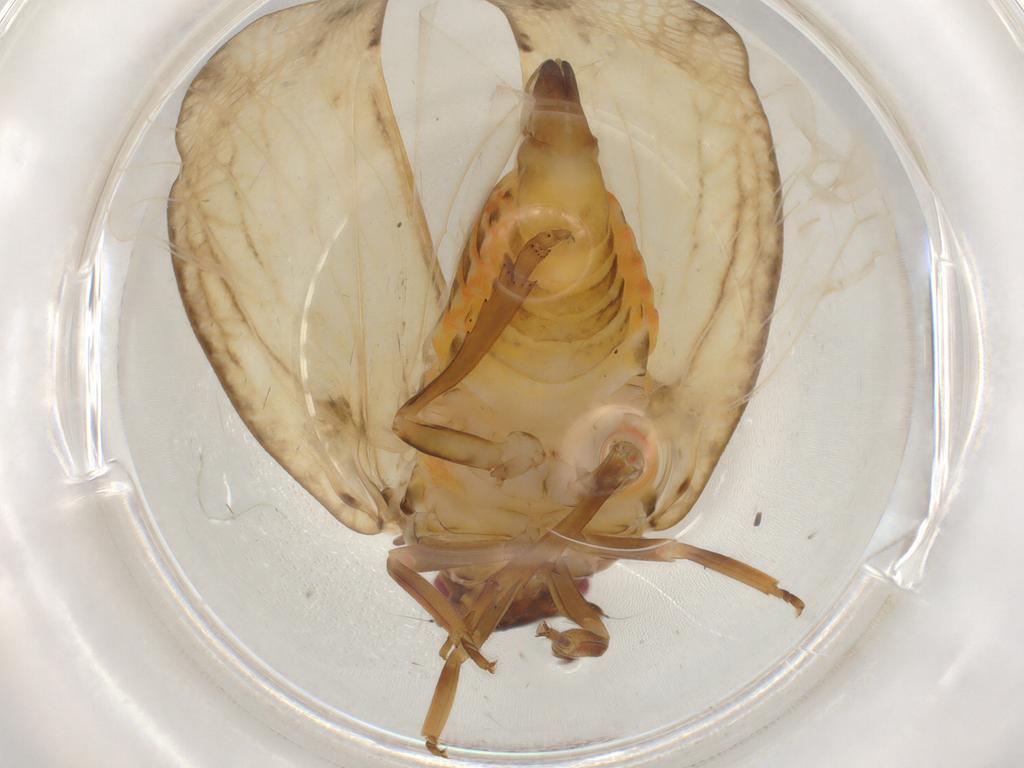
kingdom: Animalia
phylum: Arthropoda
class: Insecta
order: Hemiptera
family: Flatidae
